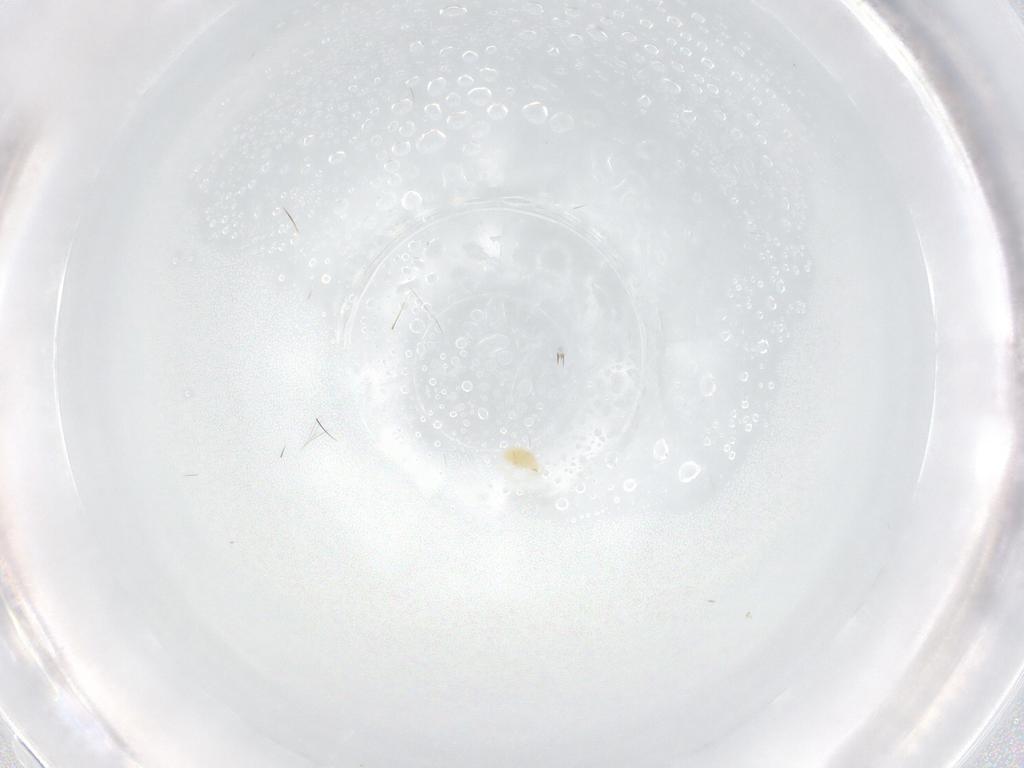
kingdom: Animalia
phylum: Arthropoda
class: Arachnida
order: Trombidiformes
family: Tetranychidae
